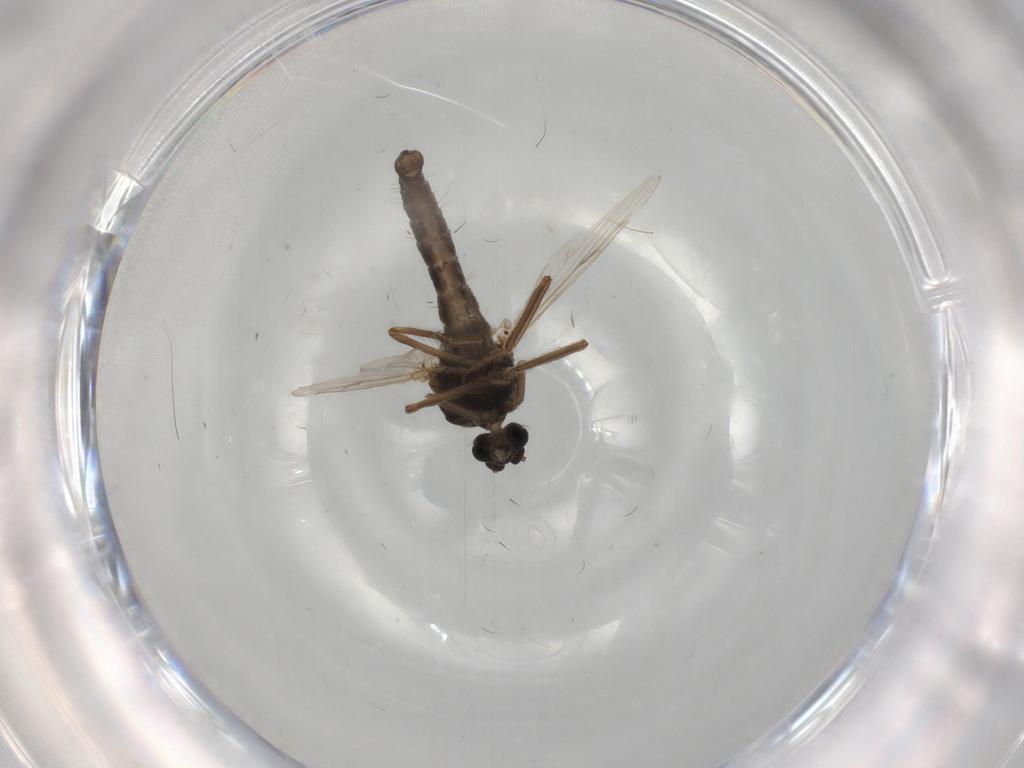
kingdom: Animalia
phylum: Arthropoda
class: Insecta
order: Diptera
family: Ceratopogonidae
